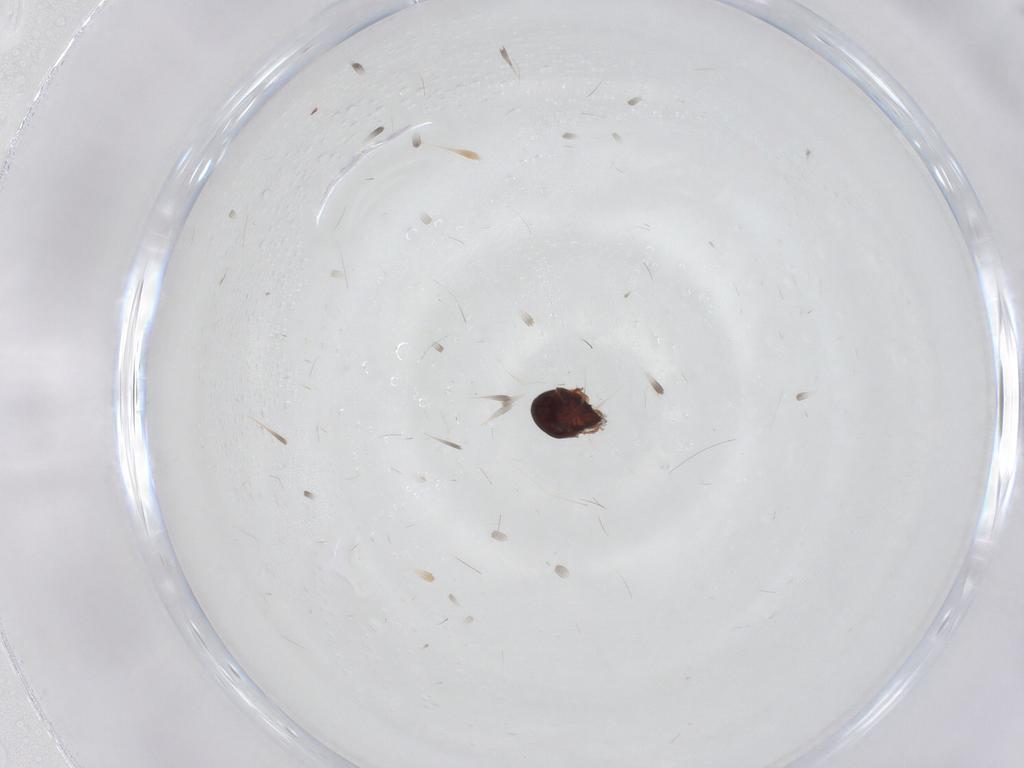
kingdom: Animalia
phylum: Arthropoda
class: Arachnida
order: Sarcoptiformes
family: Ceratozetidae
